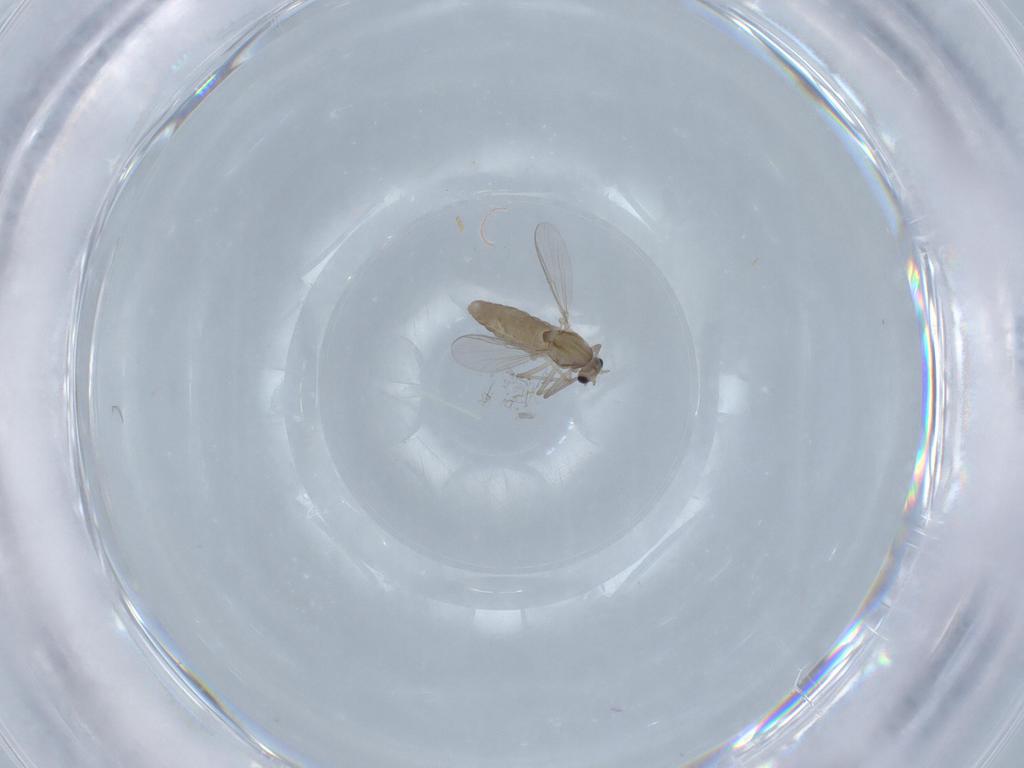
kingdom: Animalia
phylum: Arthropoda
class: Insecta
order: Diptera
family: Chironomidae
